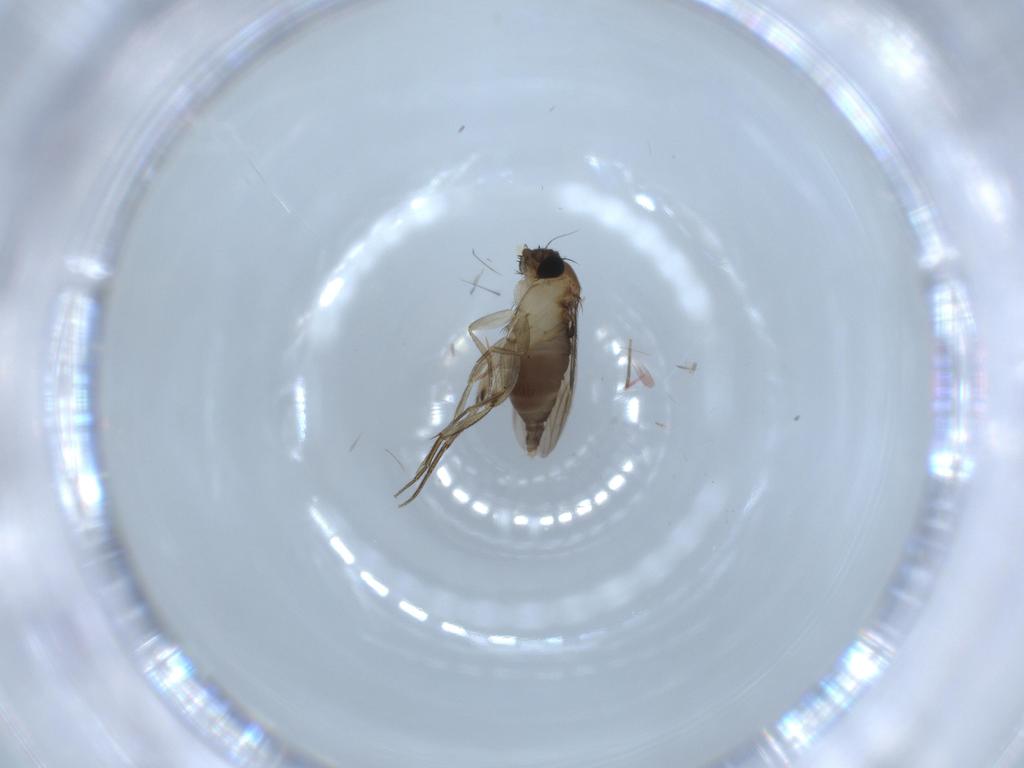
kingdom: Animalia
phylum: Arthropoda
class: Insecta
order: Diptera
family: Phoridae
